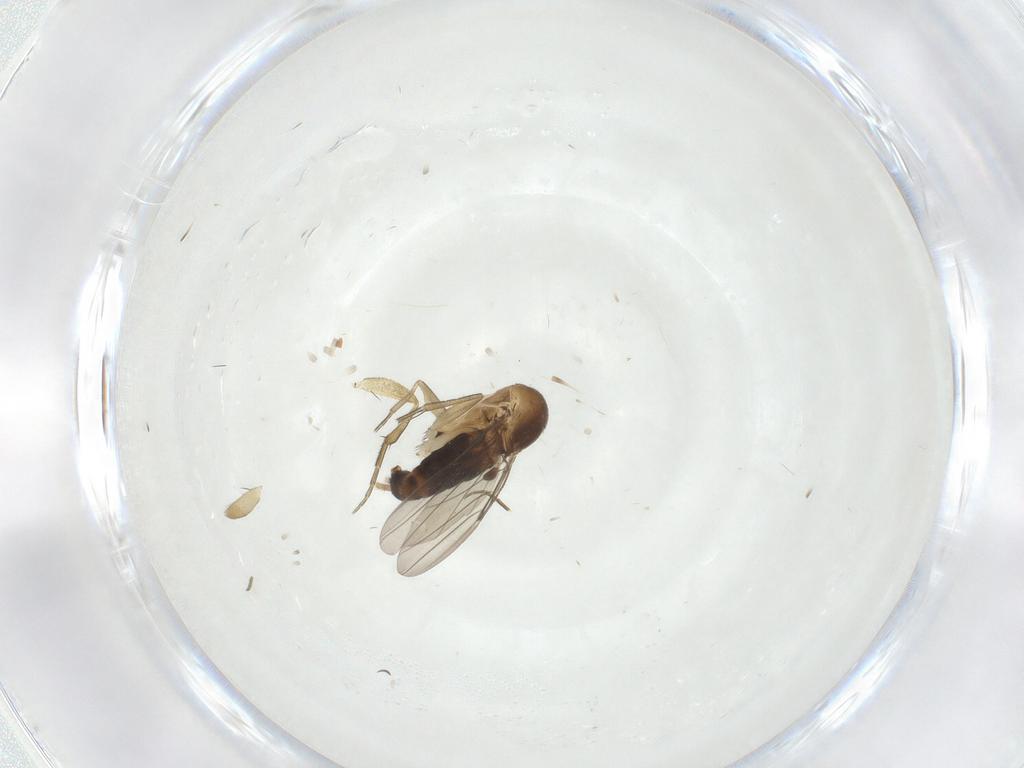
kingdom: Animalia
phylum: Arthropoda
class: Insecta
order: Diptera
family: Phoridae
